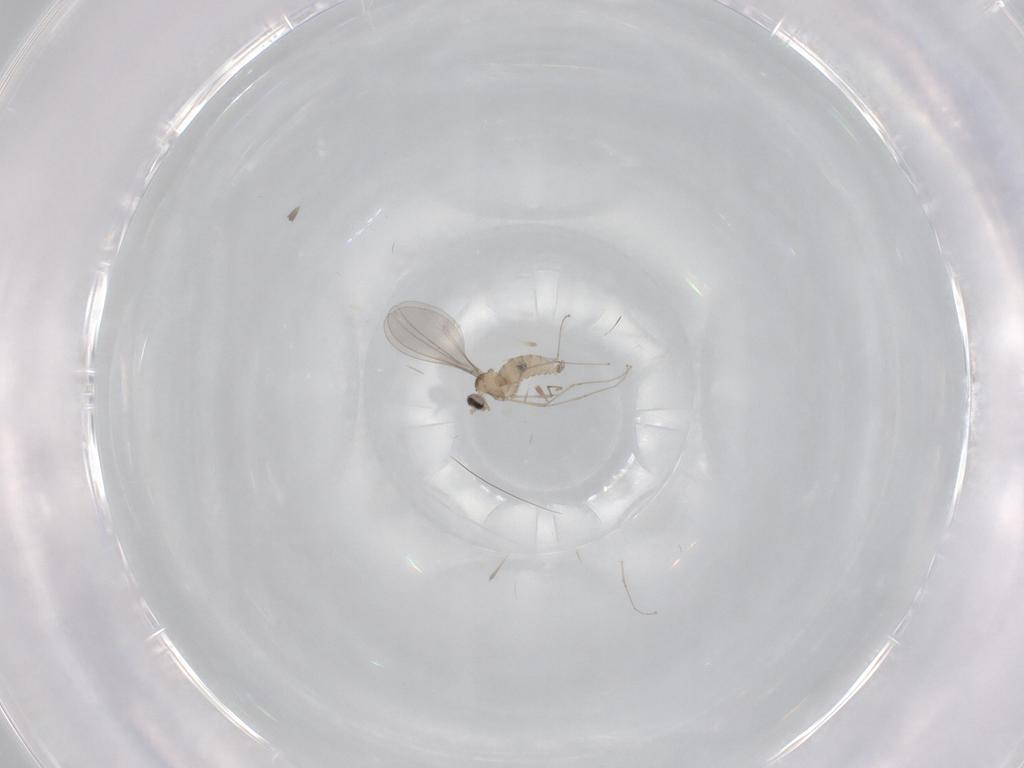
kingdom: Animalia
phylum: Arthropoda
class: Insecta
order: Diptera
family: Cecidomyiidae
